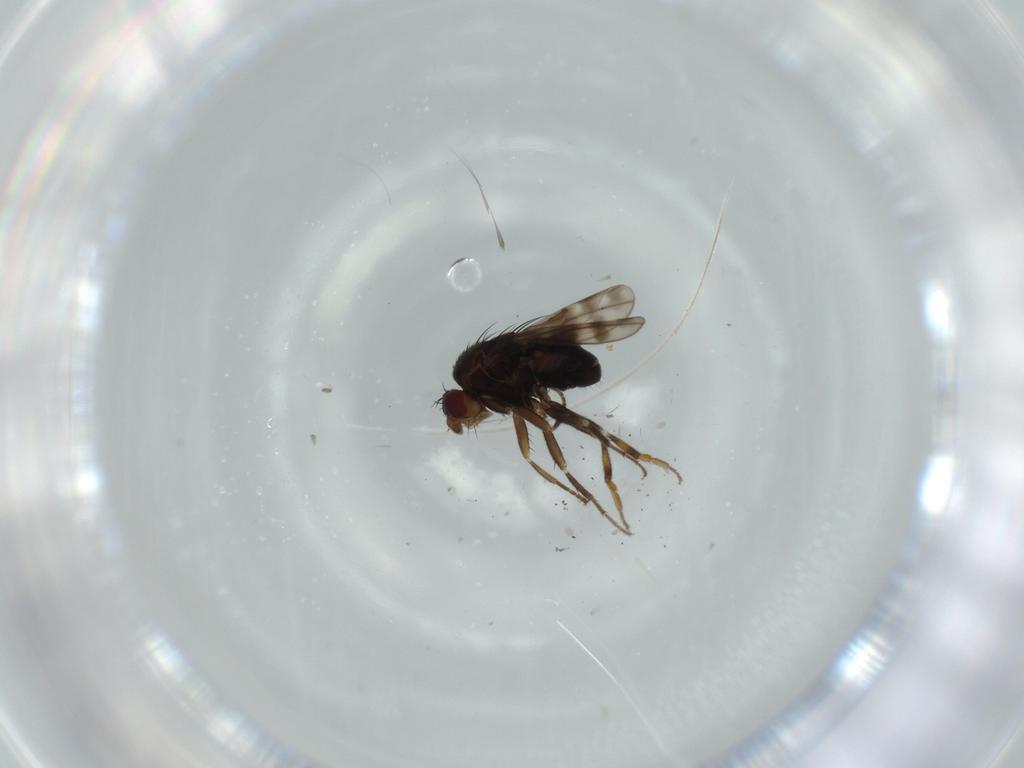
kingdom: Animalia
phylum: Arthropoda
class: Insecta
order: Diptera
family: Sphaeroceridae
